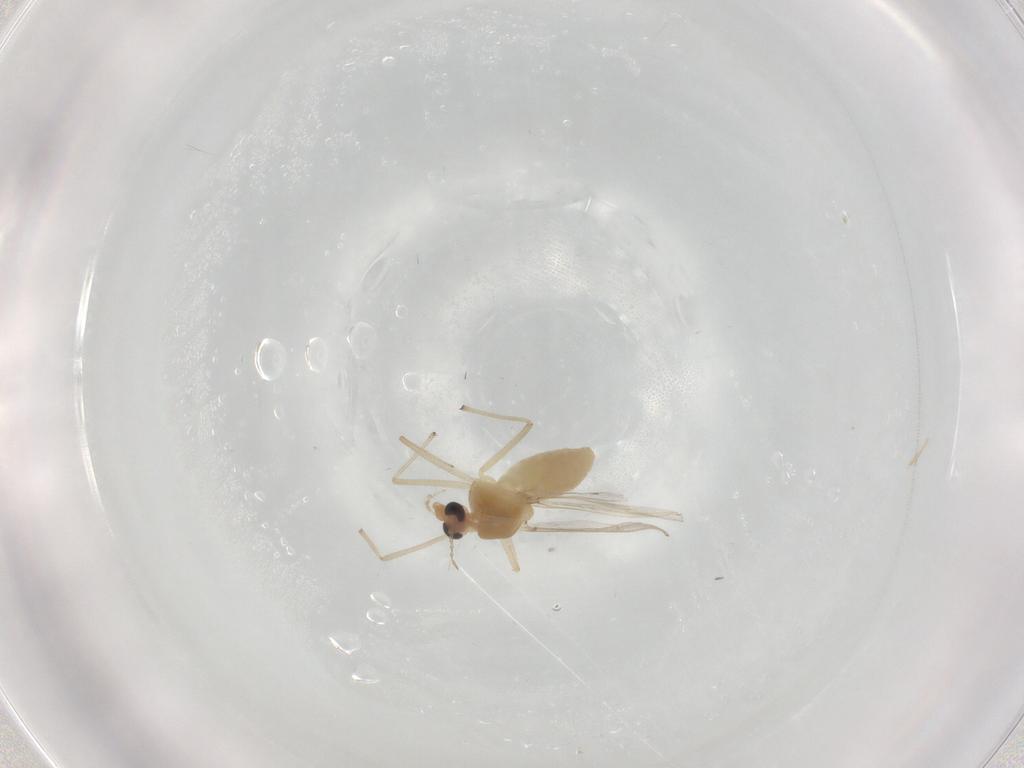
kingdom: Animalia
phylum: Arthropoda
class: Insecta
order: Diptera
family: Chironomidae
